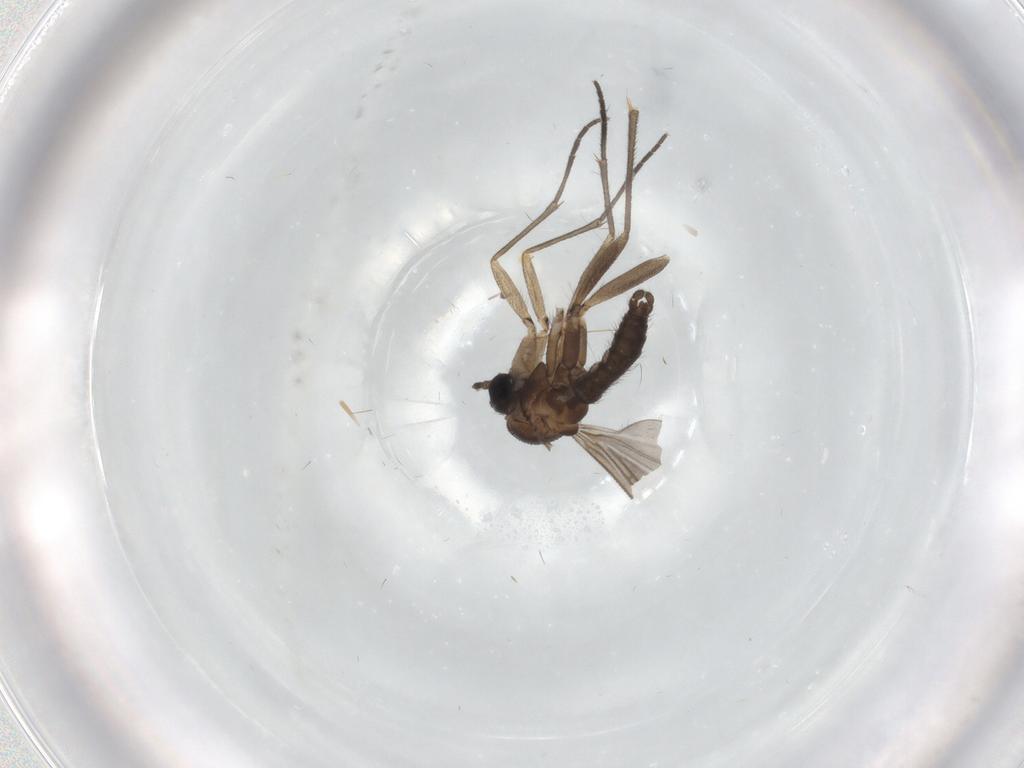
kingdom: Animalia
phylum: Arthropoda
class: Insecta
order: Diptera
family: Sciaridae
